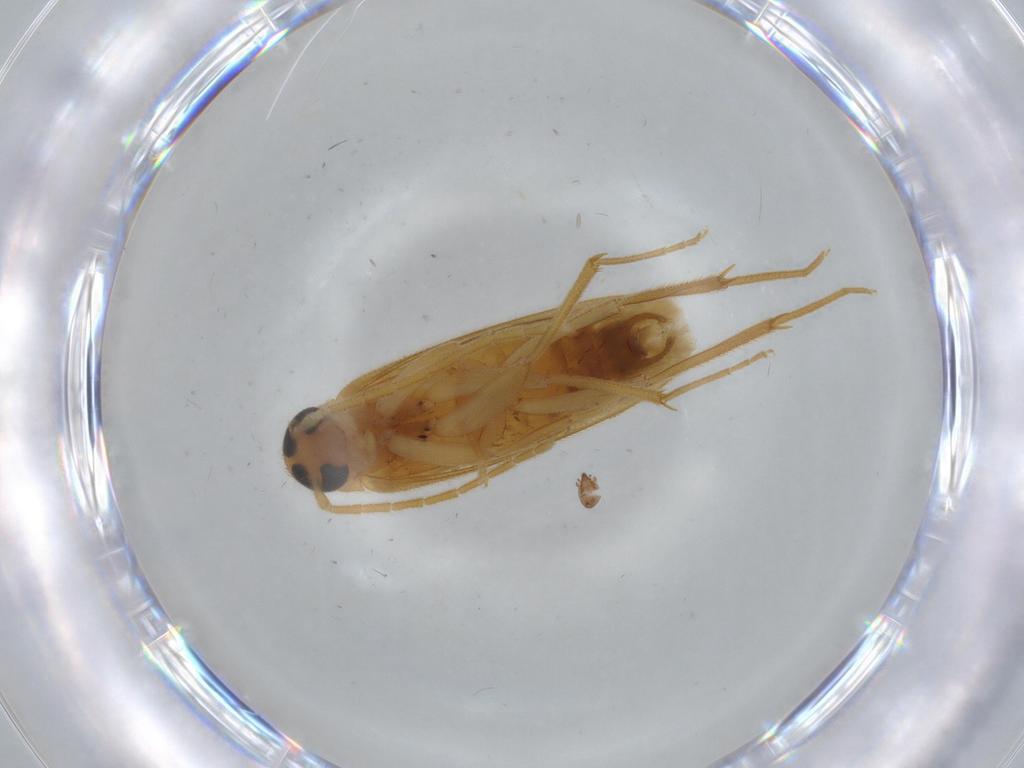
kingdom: Animalia
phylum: Arthropoda
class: Insecta
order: Coleoptera
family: Scraptiidae
